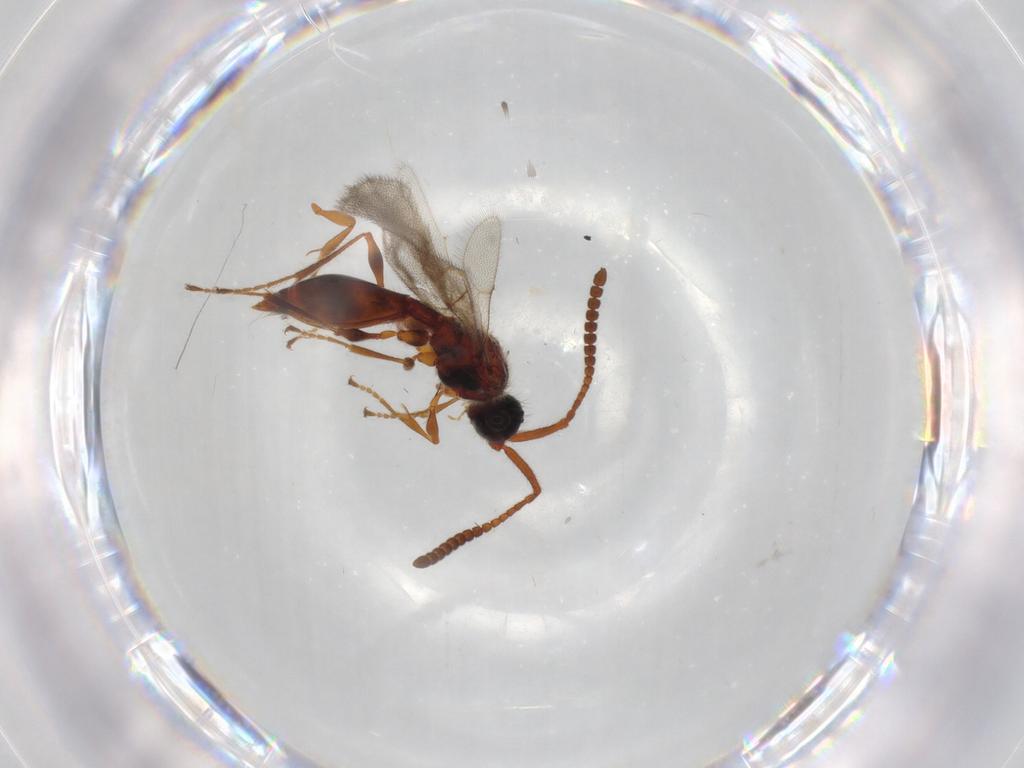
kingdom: Animalia
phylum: Arthropoda
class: Insecta
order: Hymenoptera
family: Diapriidae
